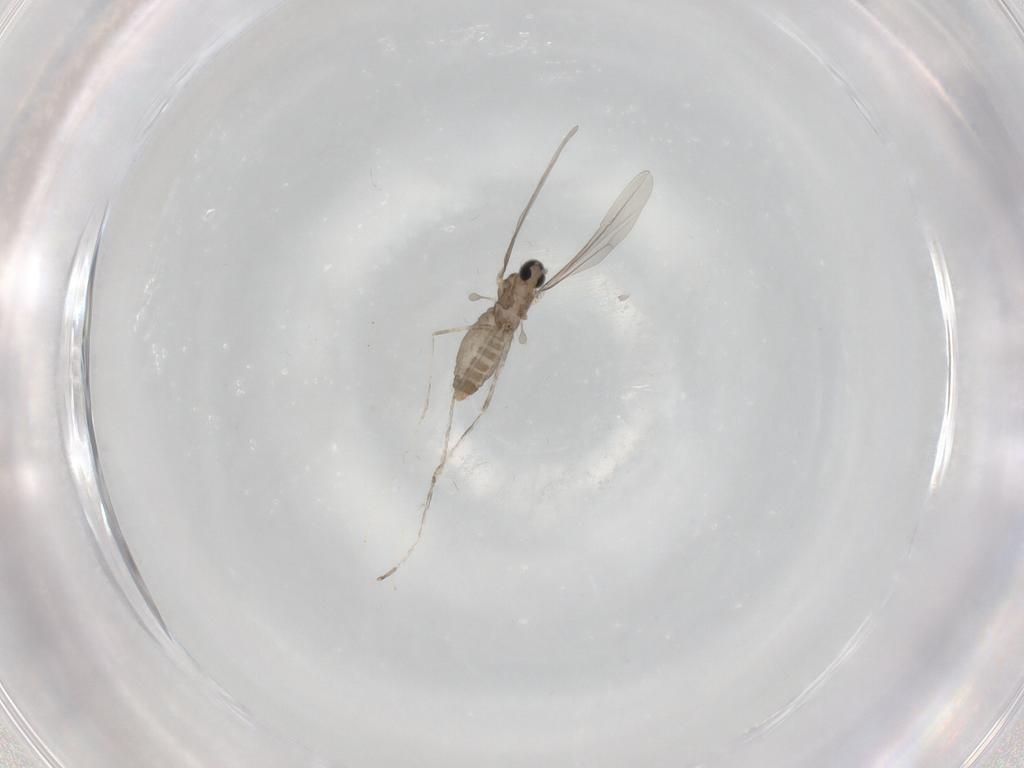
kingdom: Animalia
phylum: Arthropoda
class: Insecta
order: Diptera
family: Cecidomyiidae
